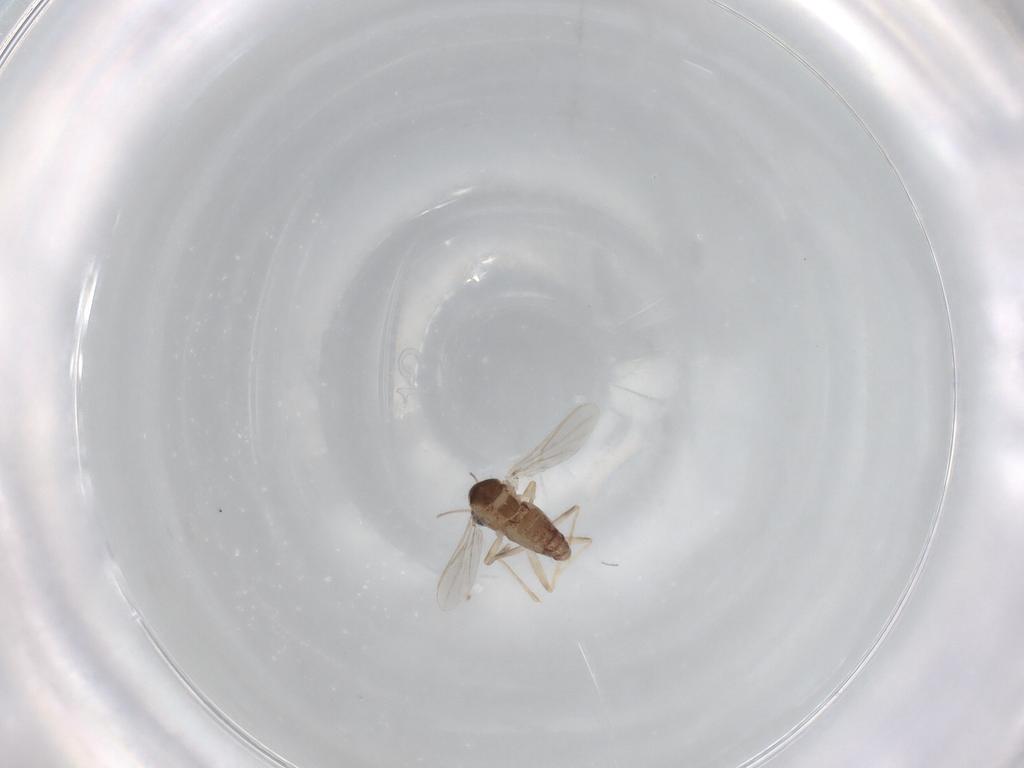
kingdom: Animalia
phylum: Arthropoda
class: Insecta
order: Diptera
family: Chironomidae
